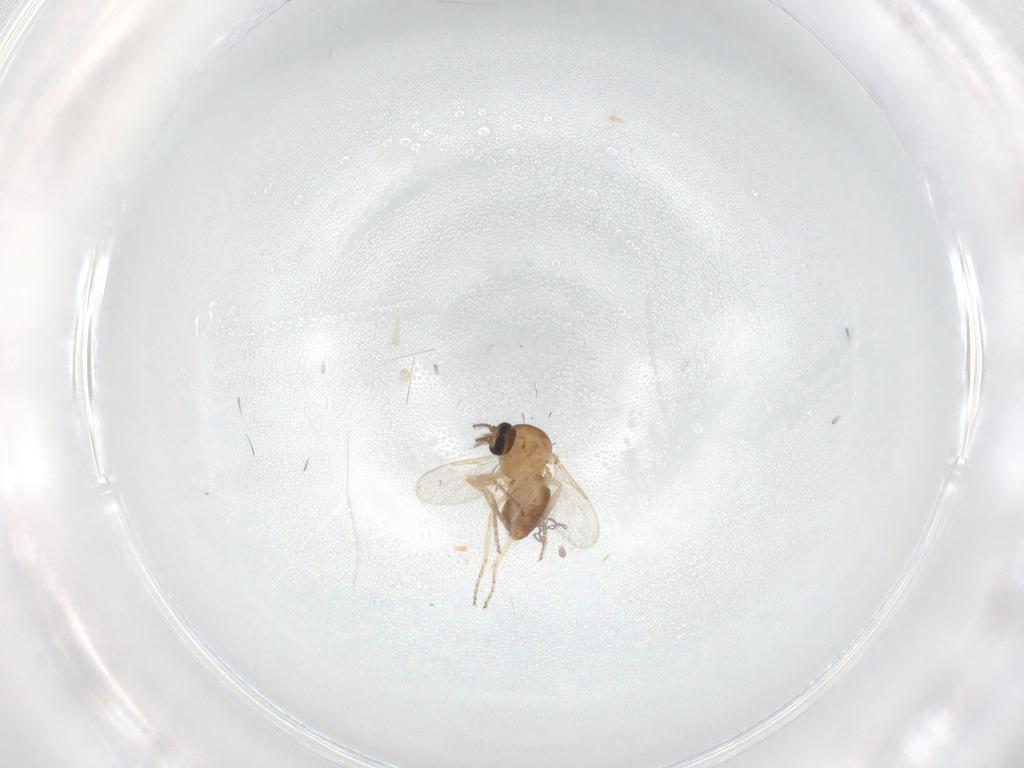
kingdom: Animalia
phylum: Arthropoda
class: Insecta
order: Diptera
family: Ceratopogonidae
